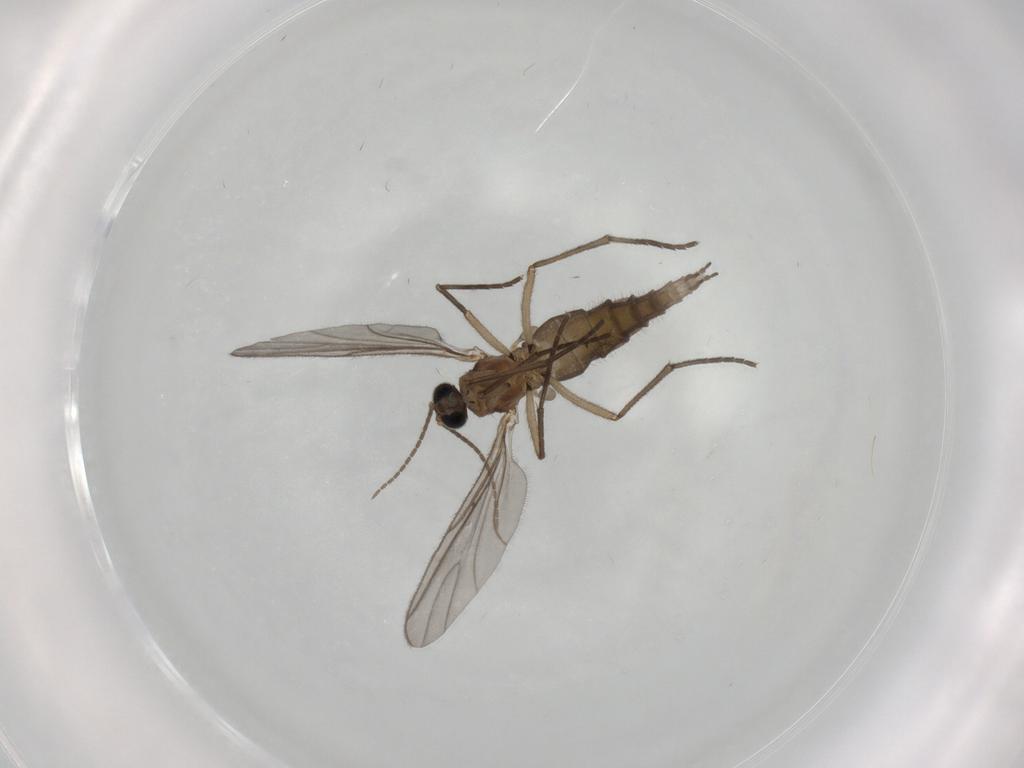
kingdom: Animalia
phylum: Arthropoda
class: Insecta
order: Diptera
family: Sciaridae
